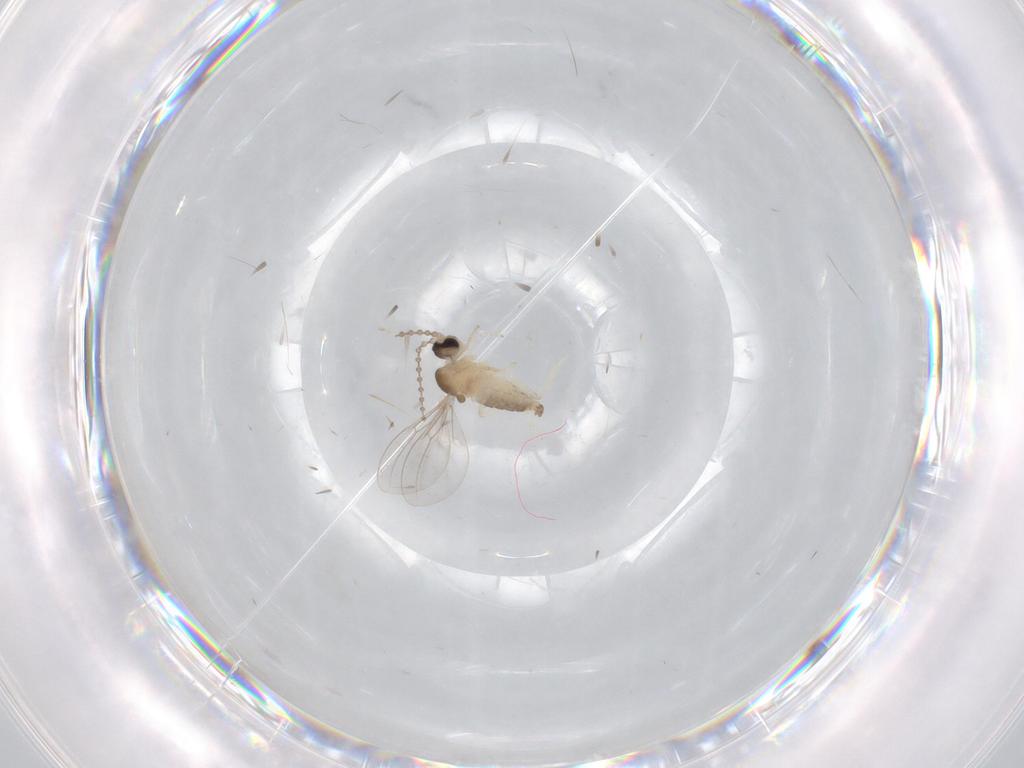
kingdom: Animalia
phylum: Arthropoda
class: Insecta
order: Diptera
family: Cecidomyiidae
